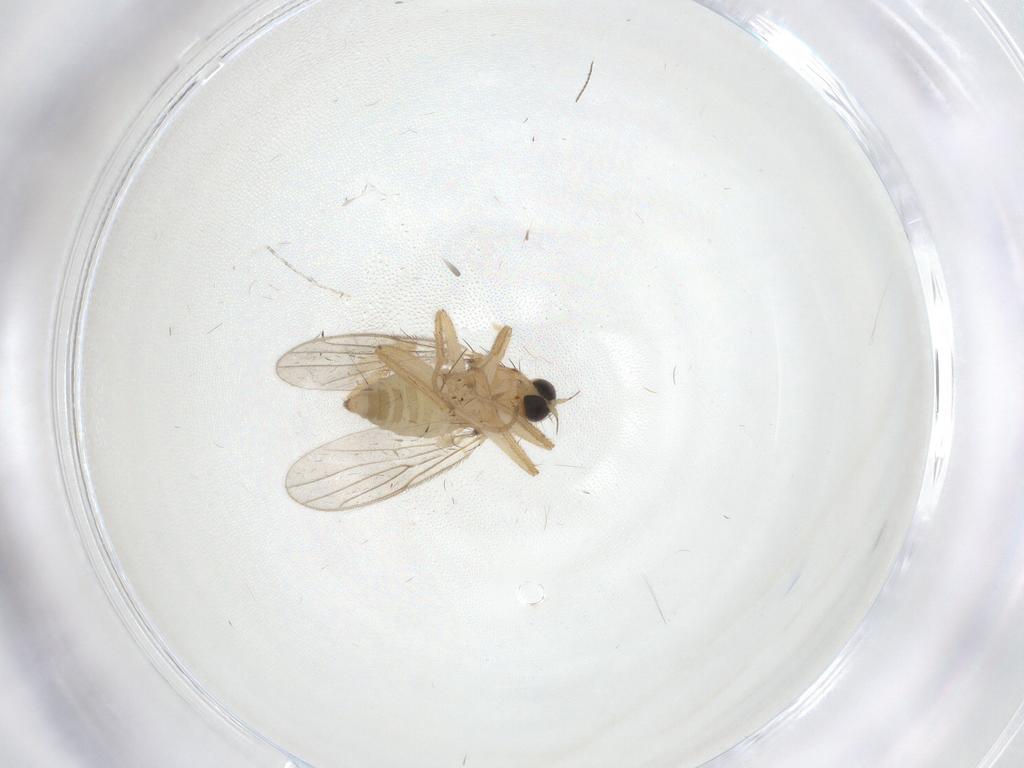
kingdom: Animalia
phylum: Arthropoda
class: Insecta
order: Diptera
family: Hybotidae
